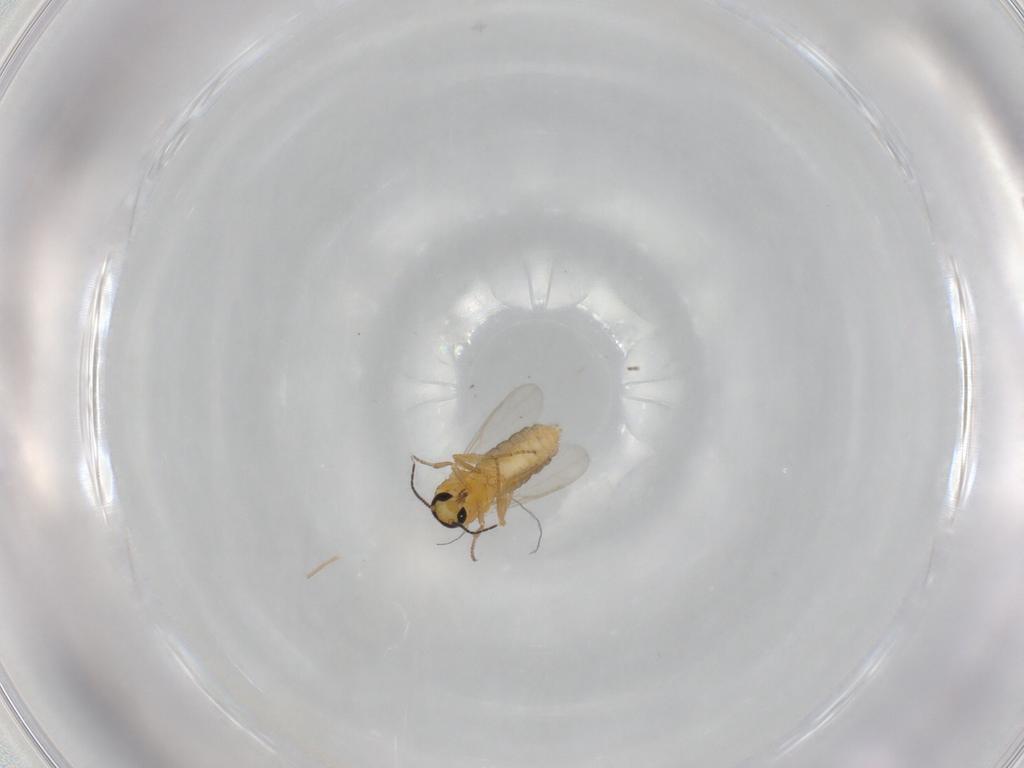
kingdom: Animalia
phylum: Arthropoda
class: Insecta
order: Diptera
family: Ceratopogonidae
